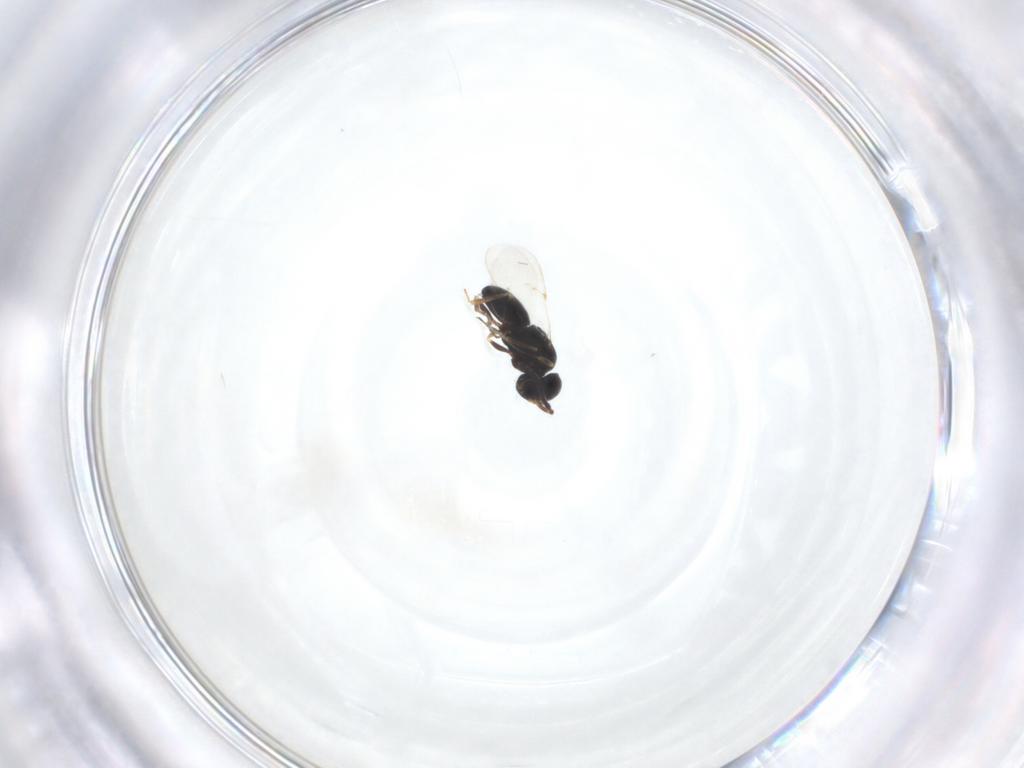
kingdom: Animalia
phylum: Arthropoda
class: Insecta
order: Hymenoptera
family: Scelionidae
